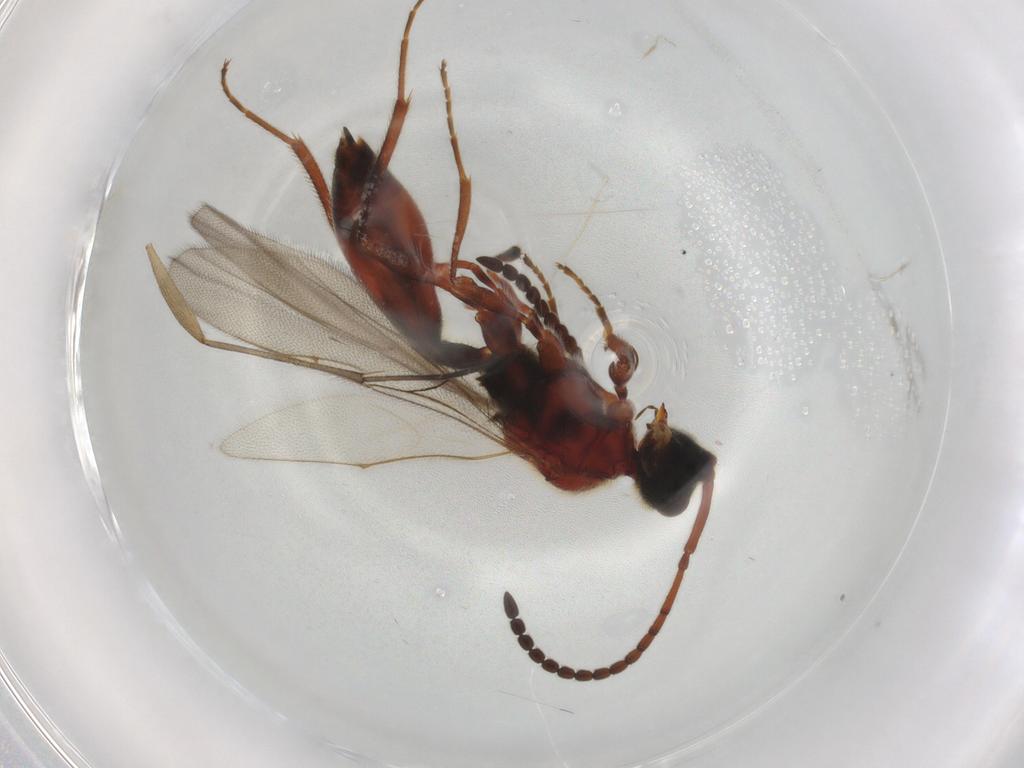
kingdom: Animalia
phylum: Arthropoda
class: Insecta
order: Hymenoptera
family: Diapriidae
